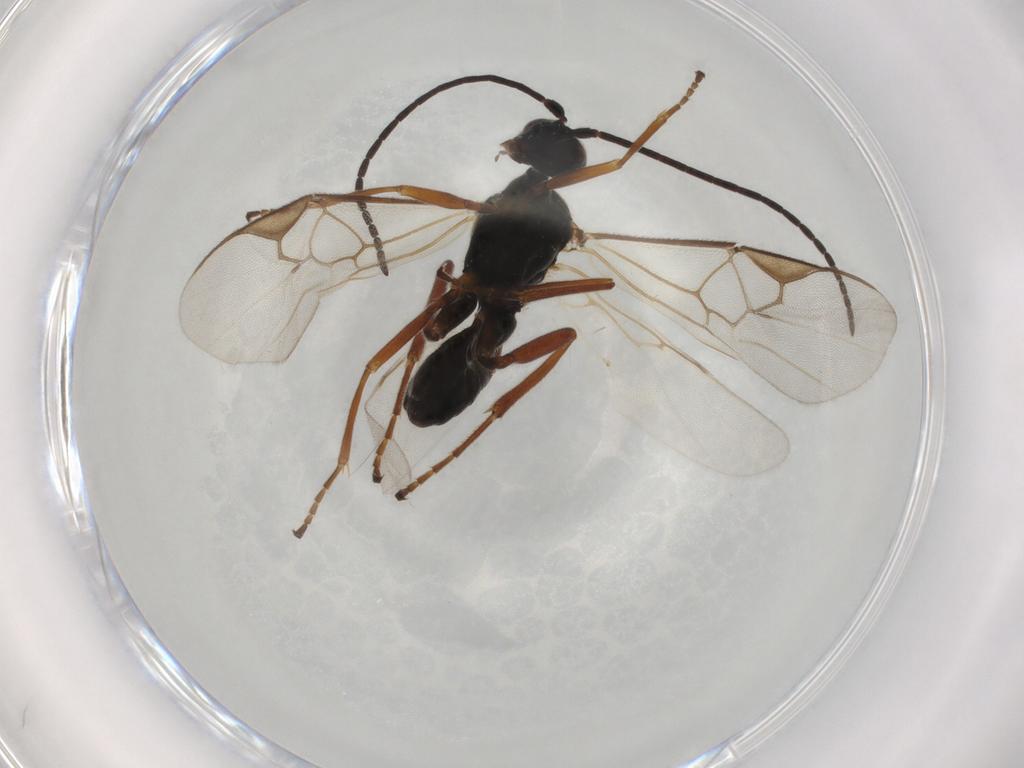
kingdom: Animalia
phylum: Arthropoda
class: Insecta
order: Hymenoptera
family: Braconidae
